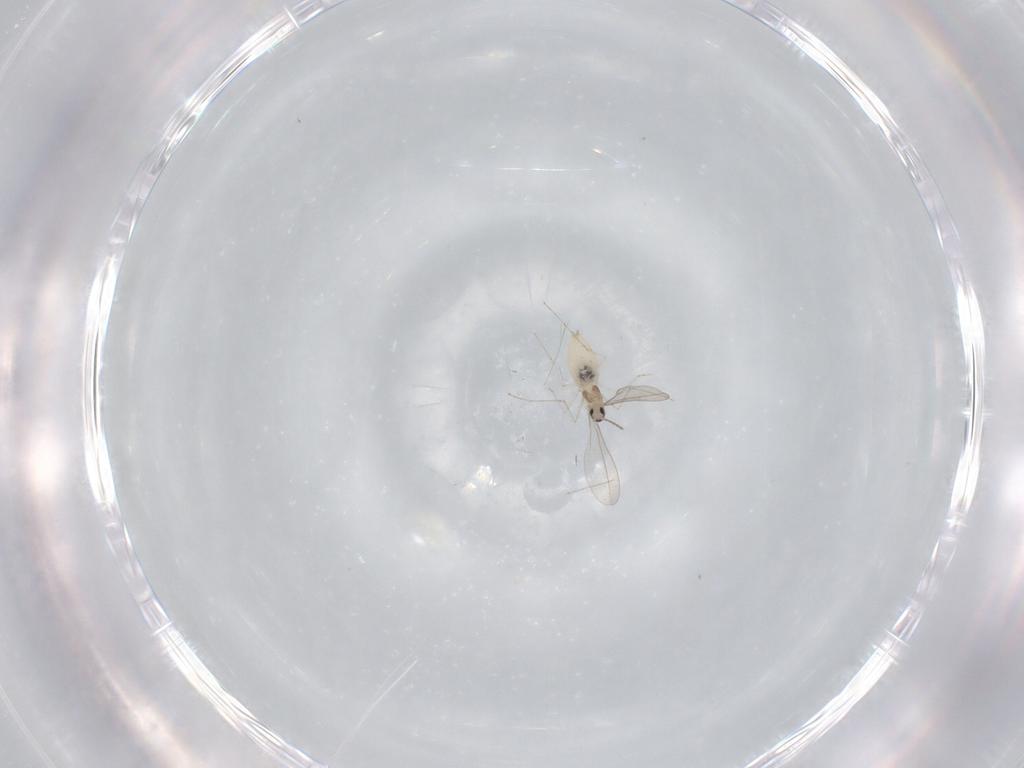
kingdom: Animalia
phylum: Arthropoda
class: Insecta
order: Diptera
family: Cecidomyiidae
